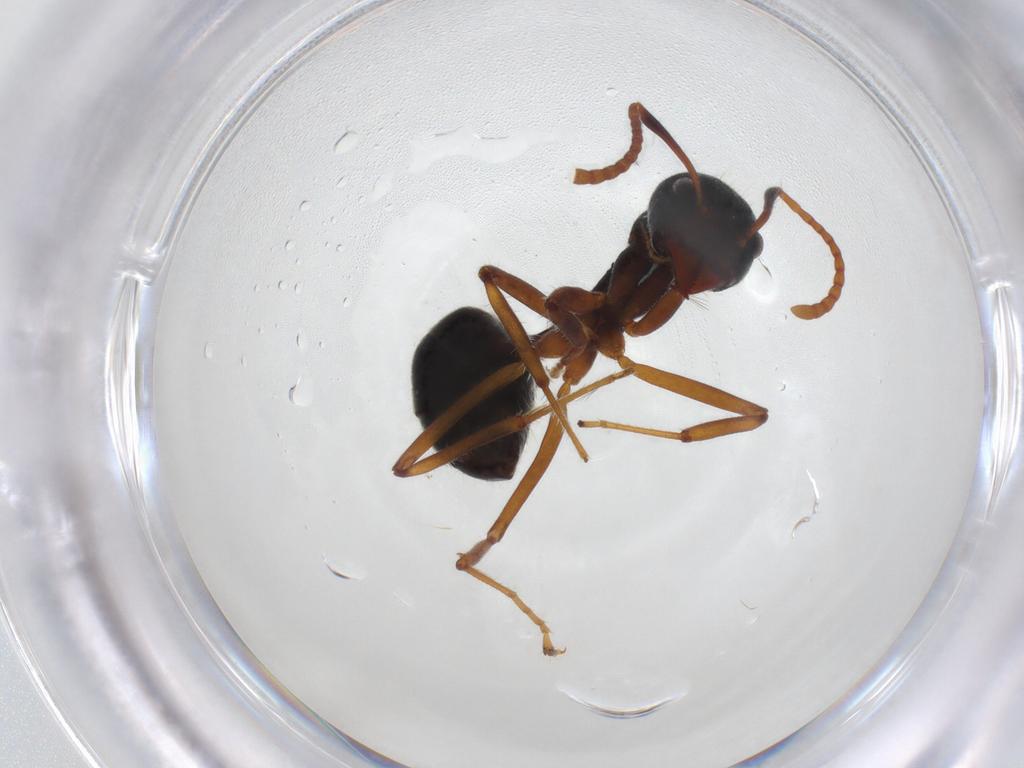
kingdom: Animalia
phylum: Arthropoda
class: Insecta
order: Hymenoptera
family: Formicidae
